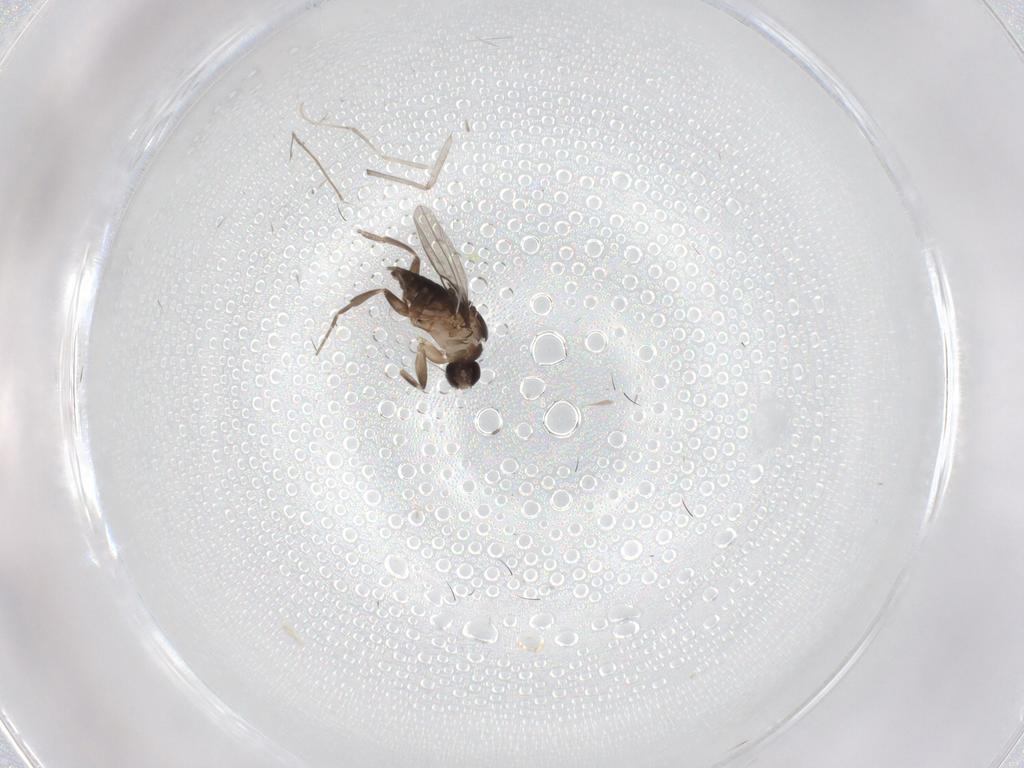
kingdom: Animalia
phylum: Arthropoda
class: Insecta
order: Diptera
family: Chironomidae
